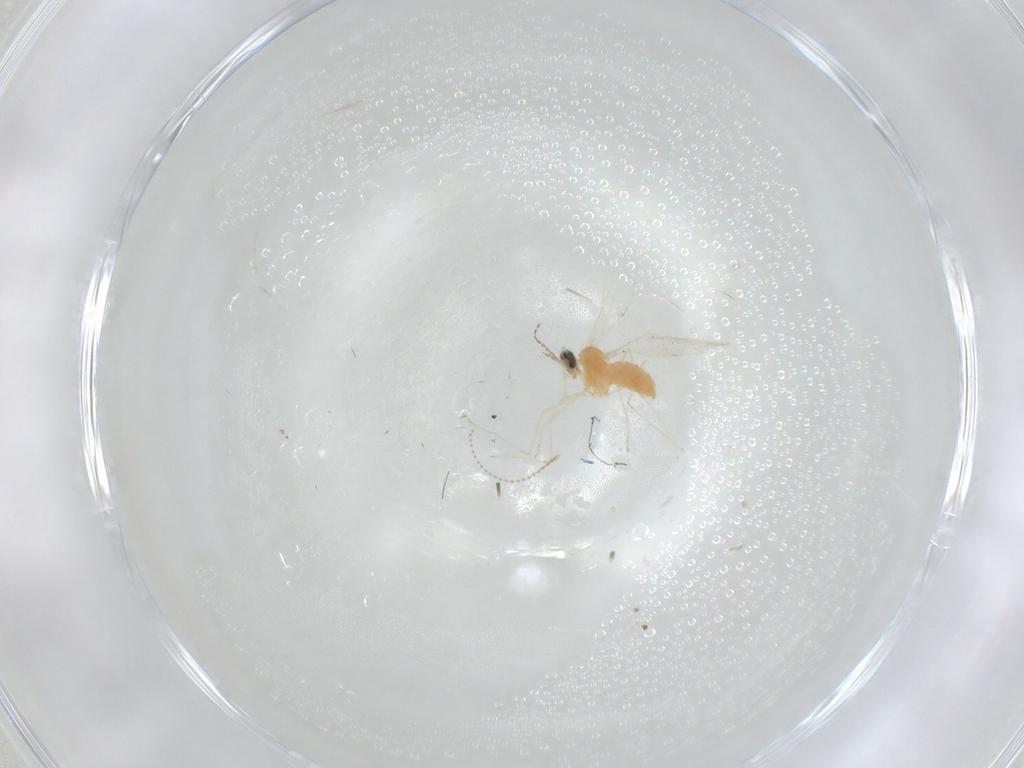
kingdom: Animalia
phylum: Arthropoda
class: Insecta
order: Diptera
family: Cecidomyiidae
